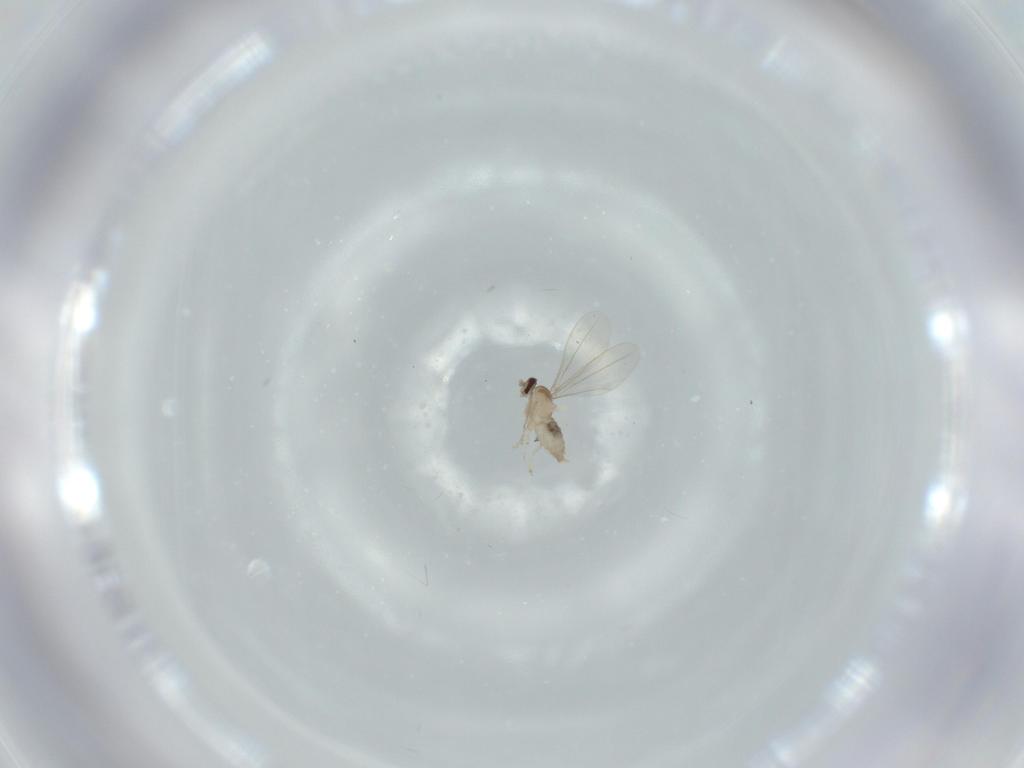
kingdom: Animalia
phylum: Arthropoda
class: Insecta
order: Diptera
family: Cecidomyiidae
